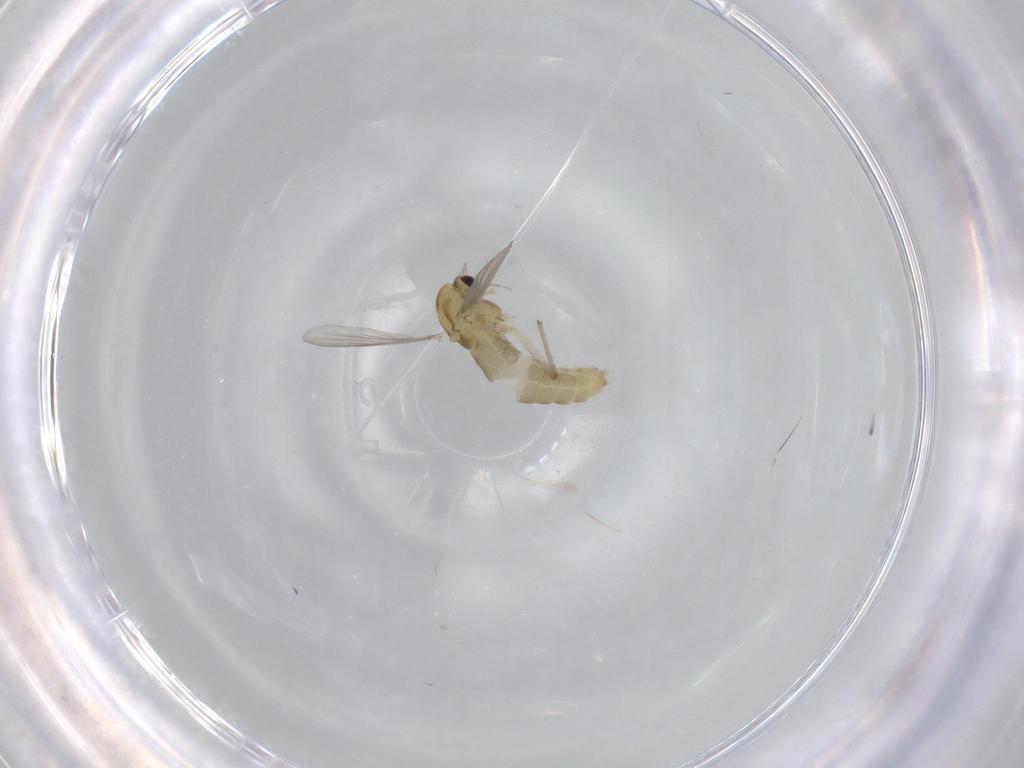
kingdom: Animalia
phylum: Arthropoda
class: Insecta
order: Diptera
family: Chironomidae
